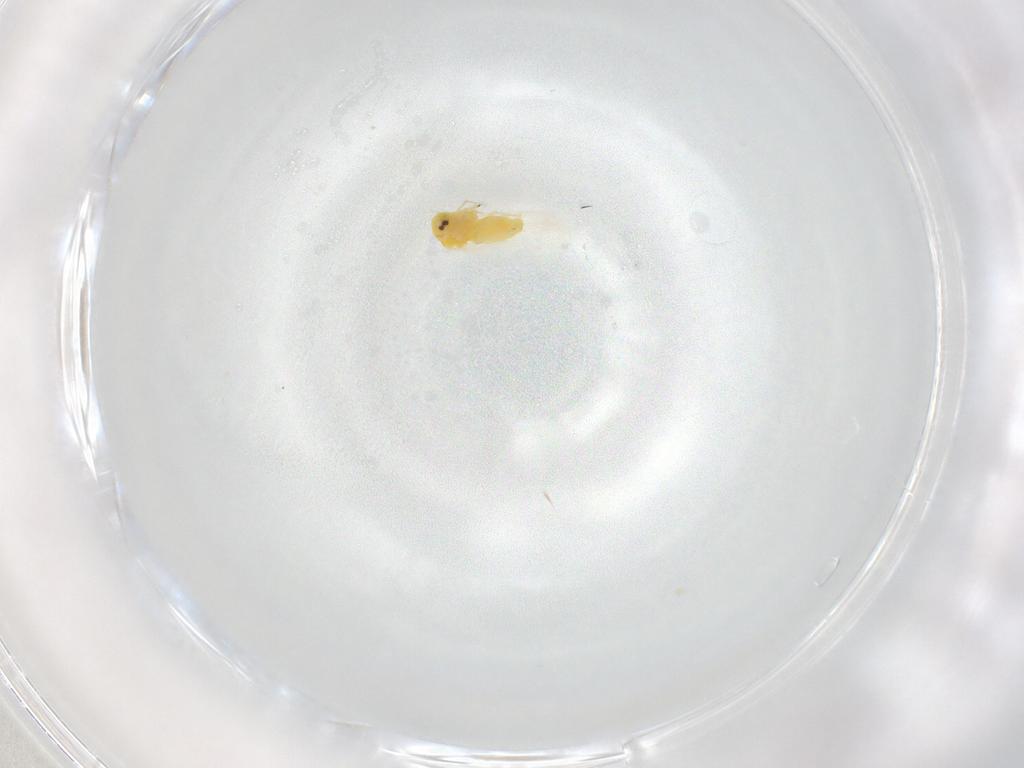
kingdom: Animalia
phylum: Arthropoda
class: Insecta
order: Hemiptera
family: Aleyrodidae
